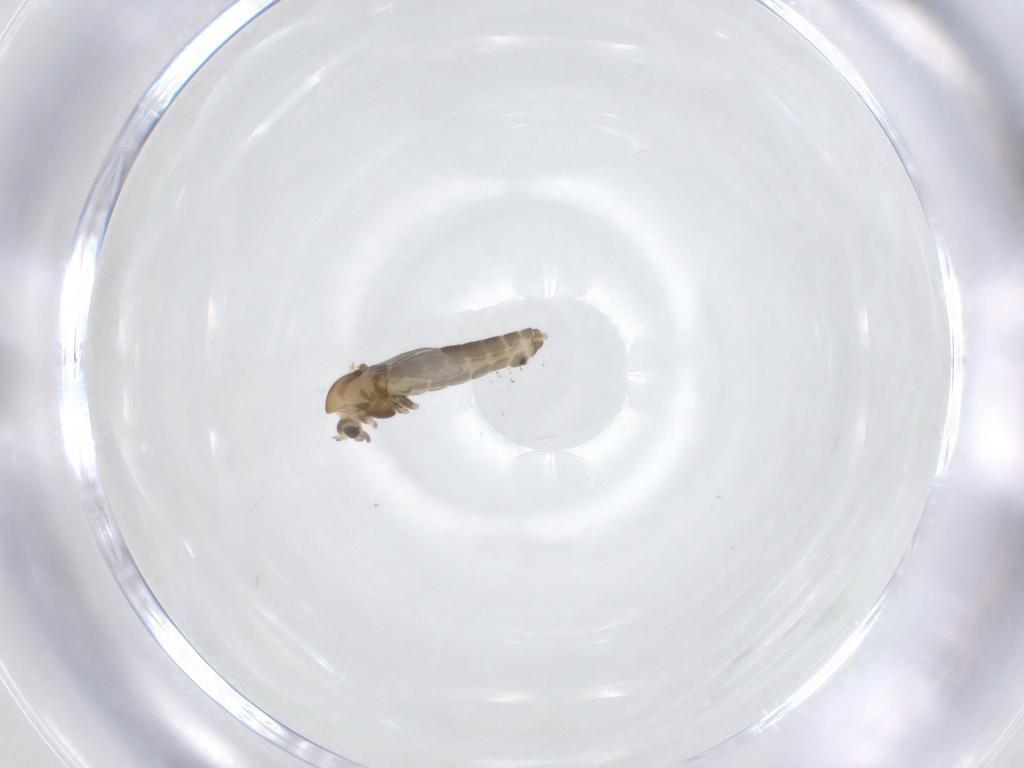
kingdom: Animalia
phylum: Arthropoda
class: Insecta
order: Diptera
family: Chironomidae
